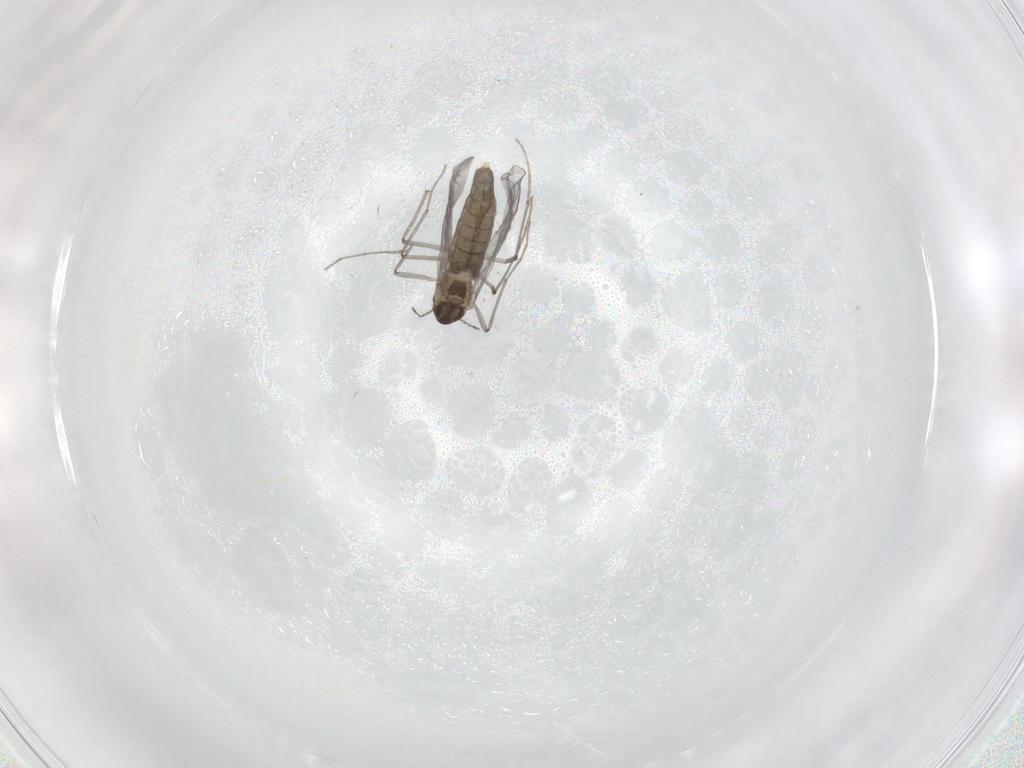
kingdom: Animalia
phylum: Arthropoda
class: Insecta
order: Diptera
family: Chironomidae
